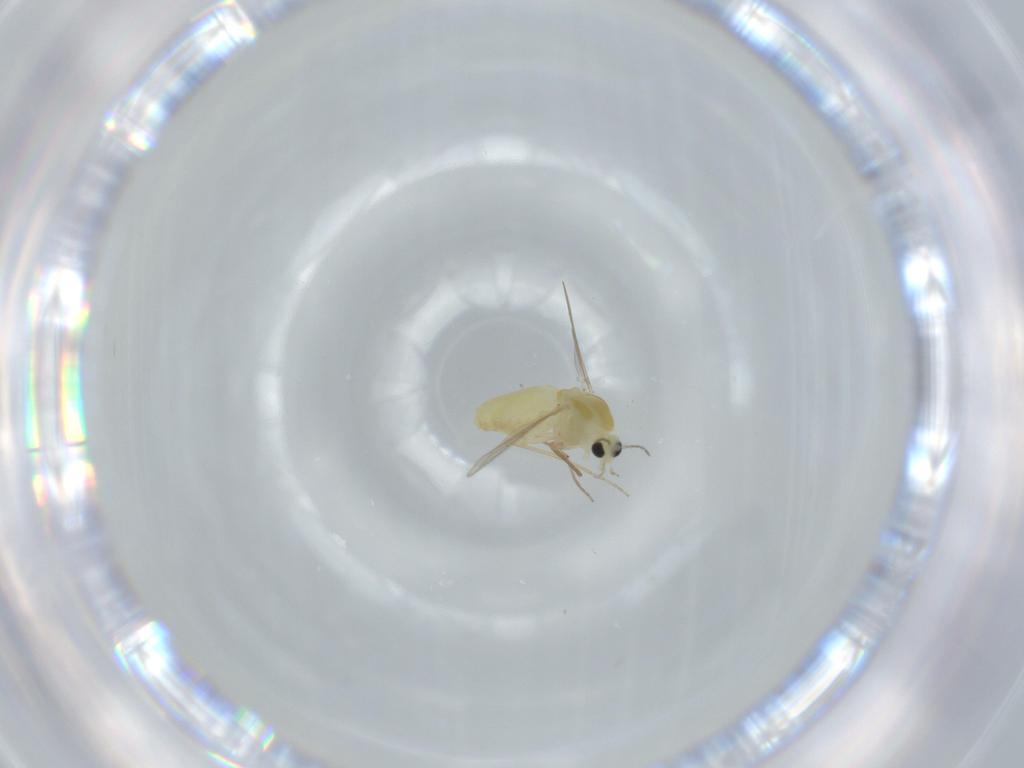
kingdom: Animalia
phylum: Arthropoda
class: Insecta
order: Diptera
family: Chironomidae
